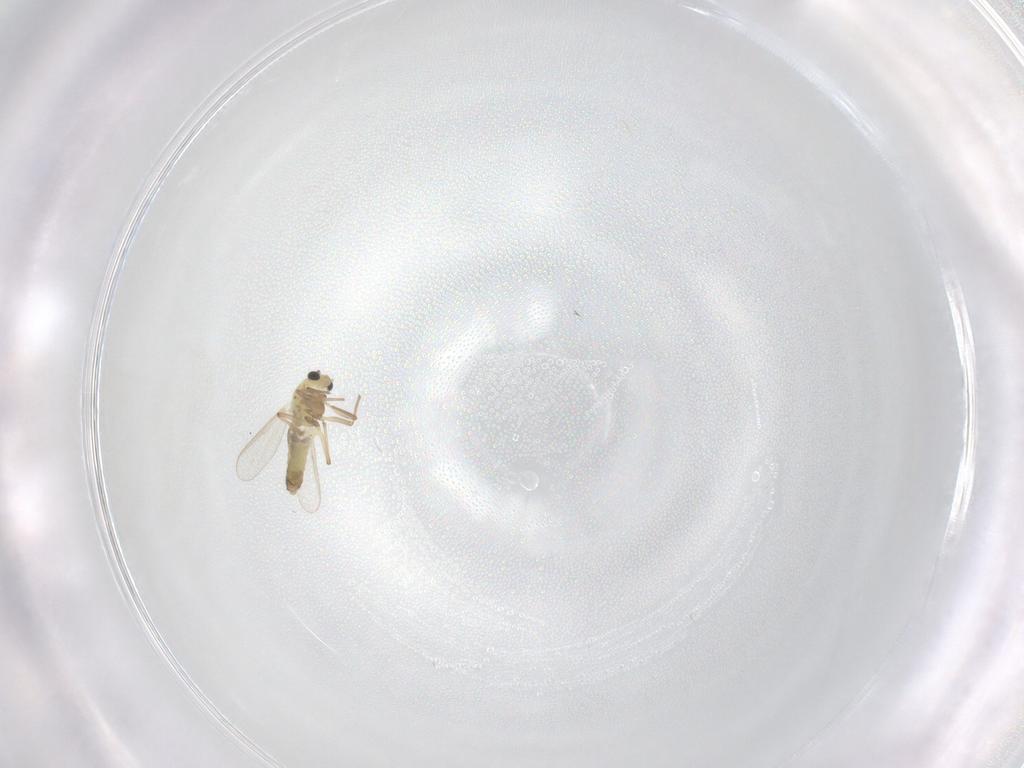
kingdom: Animalia
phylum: Arthropoda
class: Insecta
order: Diptera
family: Chironomidae
